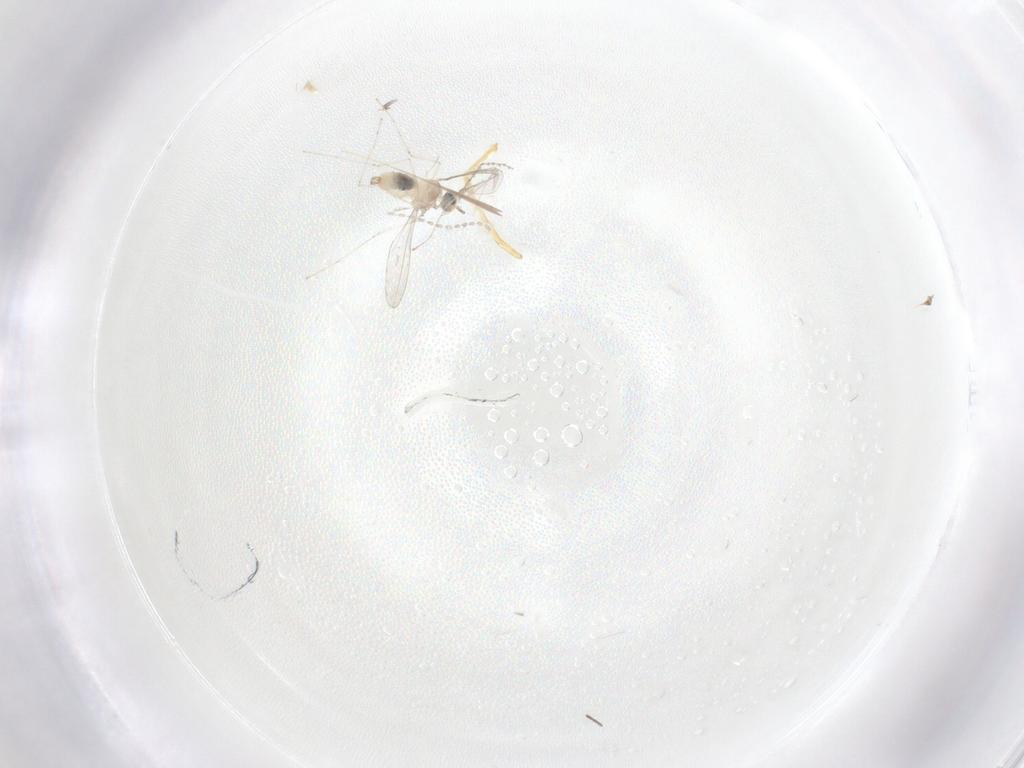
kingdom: Animalia
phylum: Arthropoda
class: Insecta
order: Diptera
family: Cecidomyiidae
